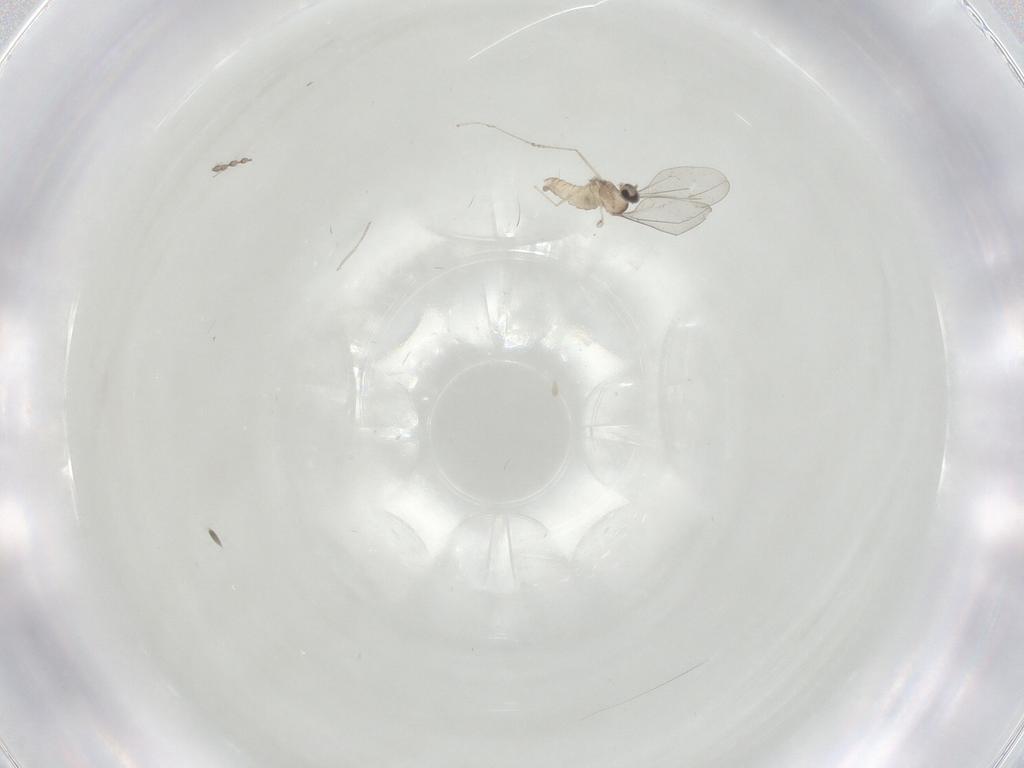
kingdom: Animalia
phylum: Arthropoda
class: Insecta
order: Diptera
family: Cecidomyiidae
